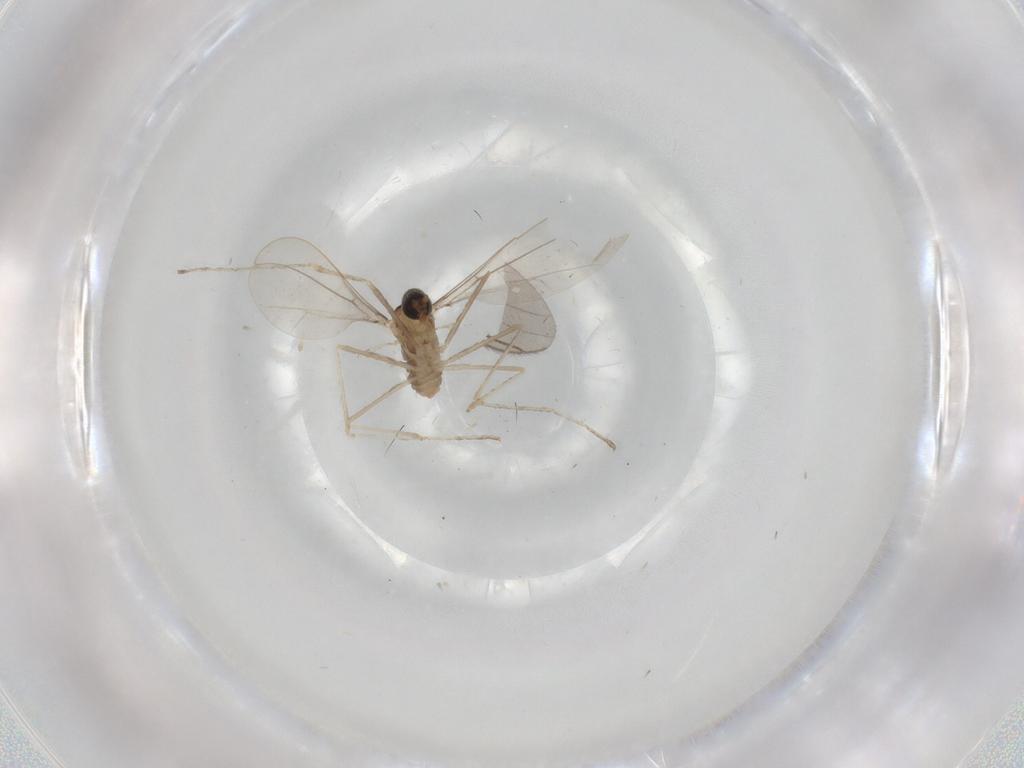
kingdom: Animalia
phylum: Arthropoda
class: Insecta
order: Diptera
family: Cecidomyiidae
